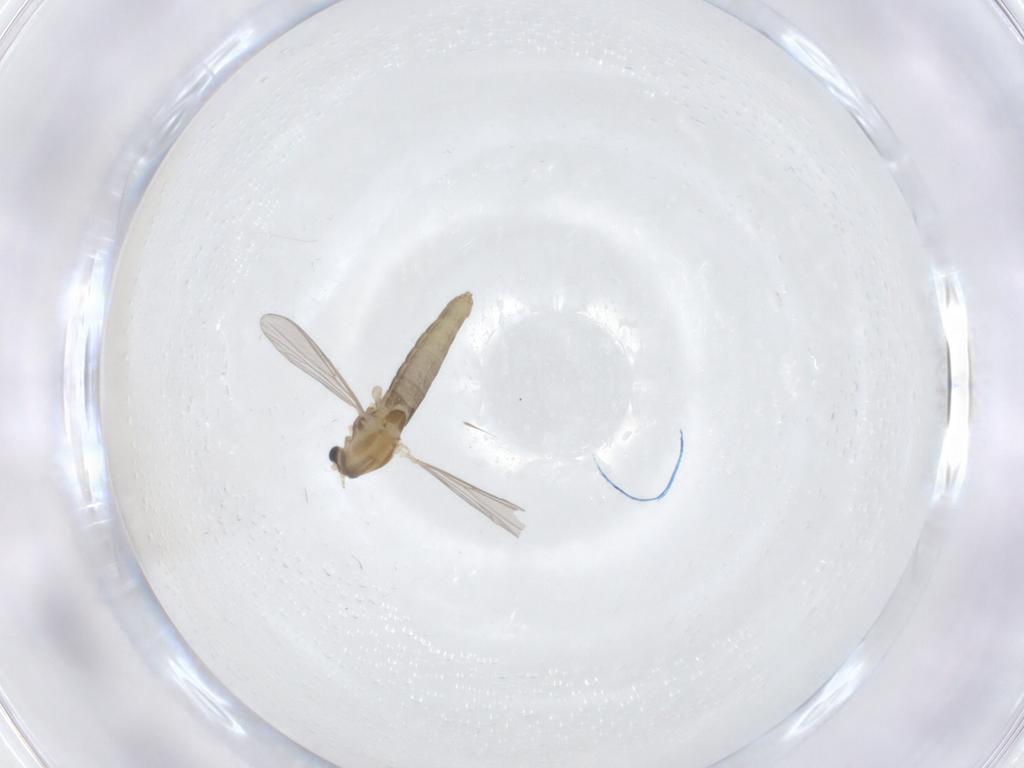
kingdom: Animalia
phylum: Arthropoda
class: Insecta
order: Diptera
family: Chironomidae
